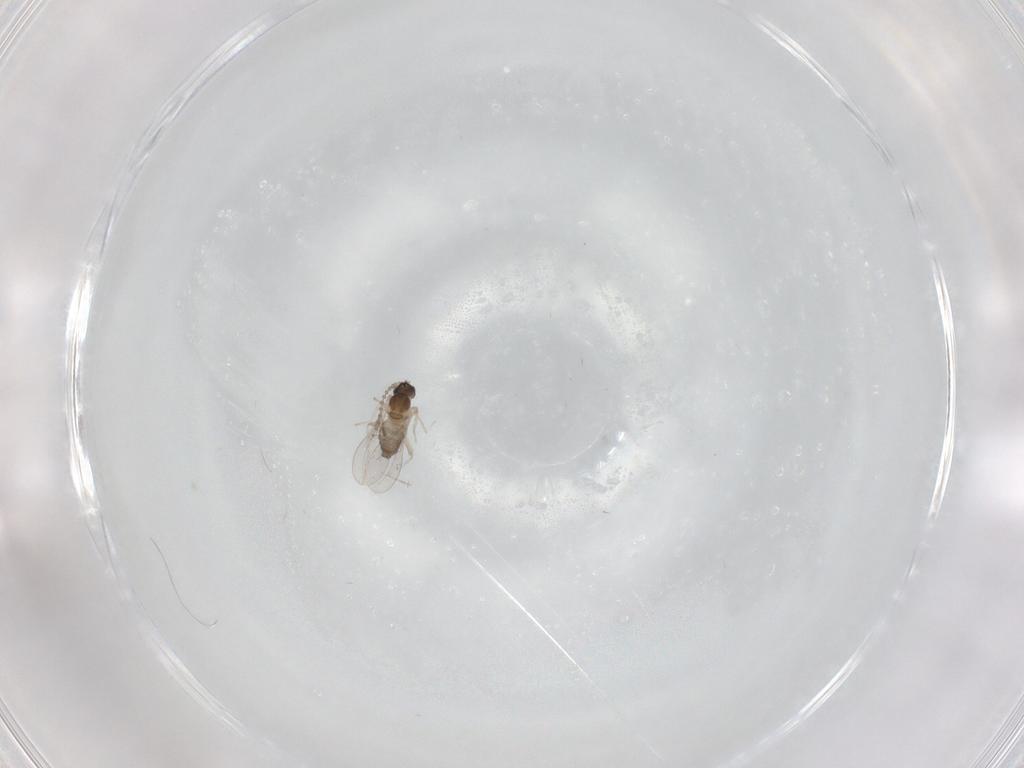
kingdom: Animalia
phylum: Arthropoda
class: Insecta
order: Diptera
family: Cecidomyiidae
